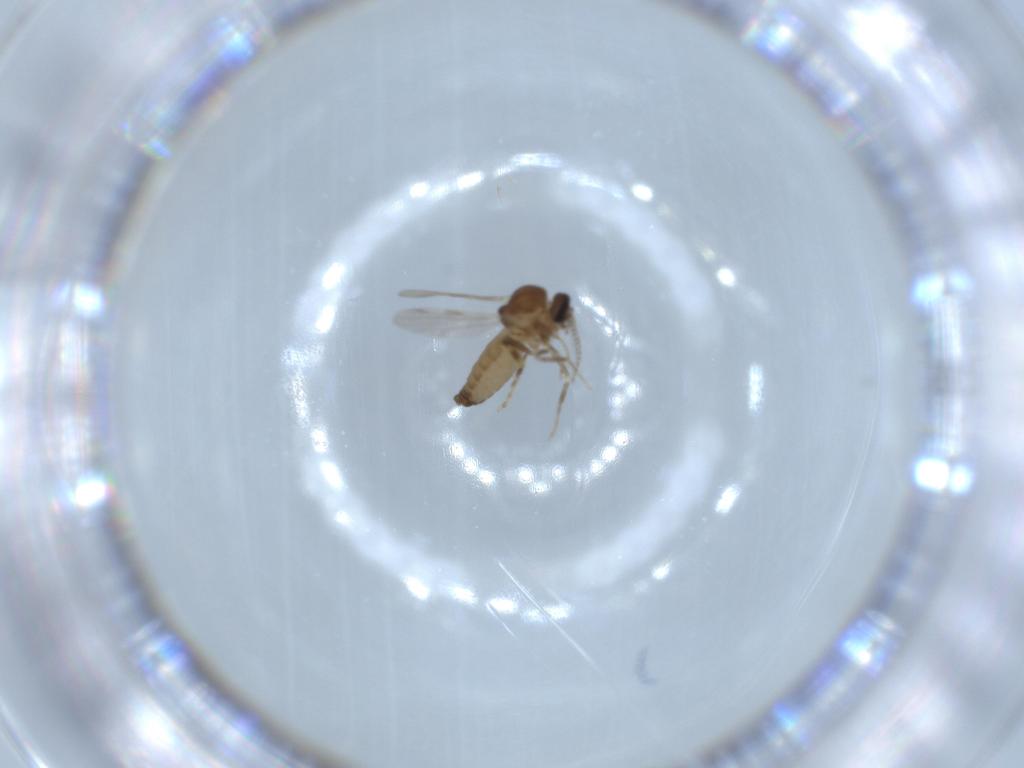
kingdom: Animalia
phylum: Arthropoda
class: Insecta
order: Diptera
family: Ceratopogonidae
